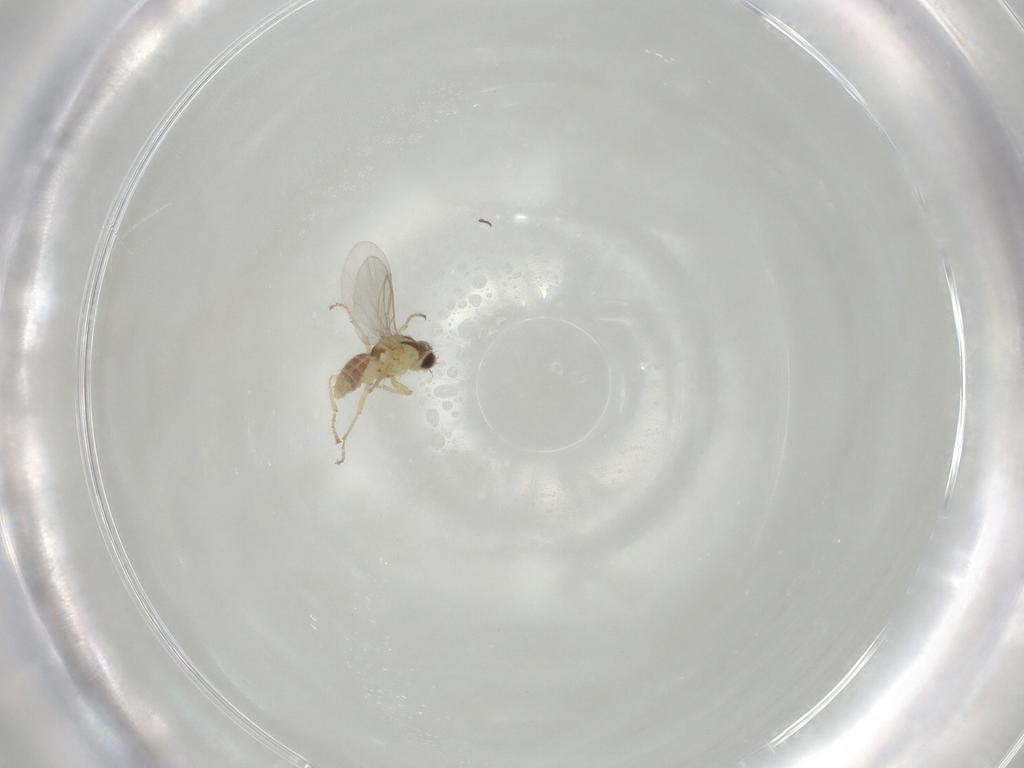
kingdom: Animalia
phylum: Arthropoda
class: Insecta
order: Diptera
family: Agromyzidae
